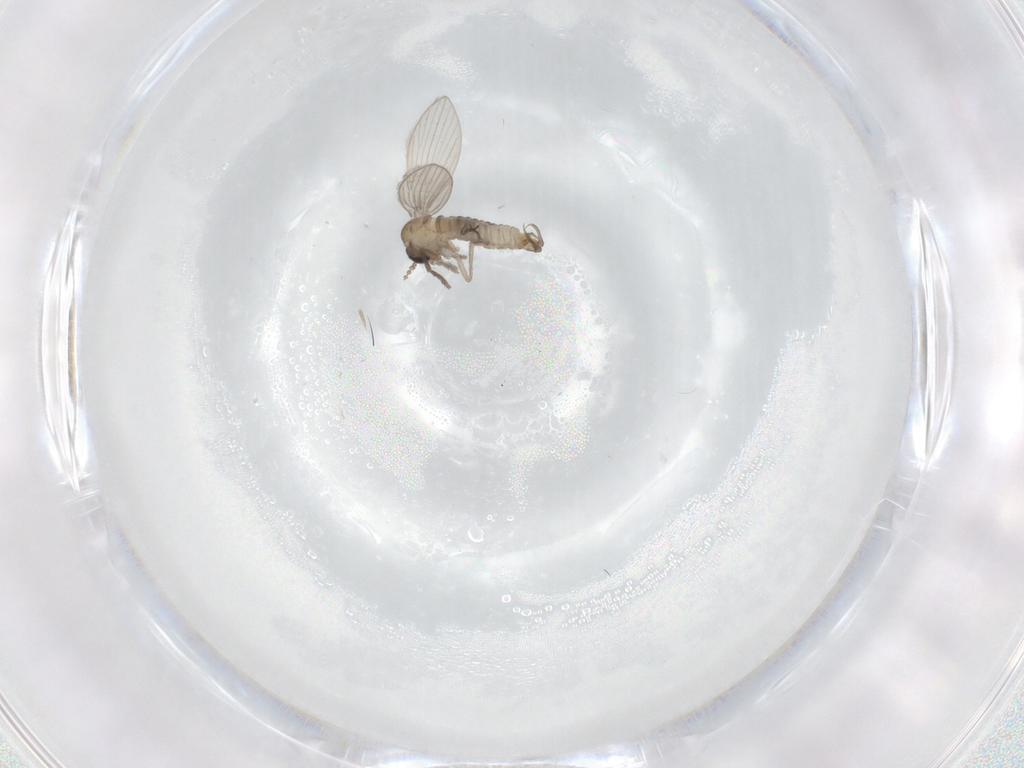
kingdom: Animalia
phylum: Arthropoda
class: Insecta
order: Diptera
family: Psychodidae
